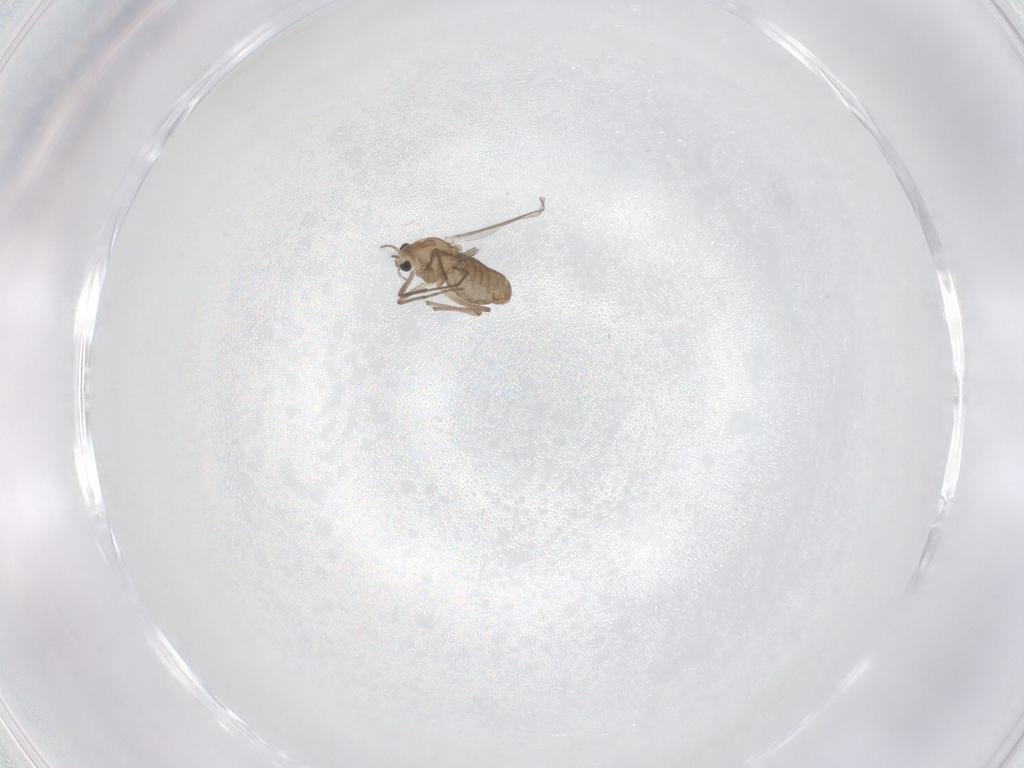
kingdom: Animalia
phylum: Arthropoda
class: Insecta
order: Diptera
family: Chironomidae
